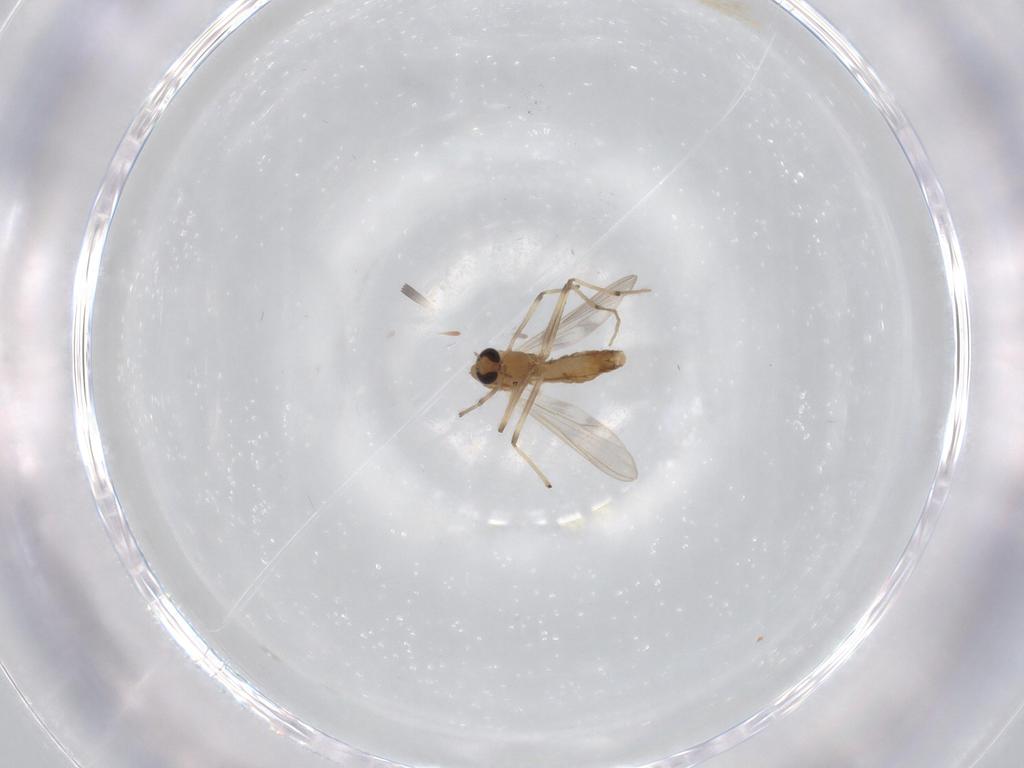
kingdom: Animalia
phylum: Arthropoda
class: Insecta
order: Diptera
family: Chironomidae
